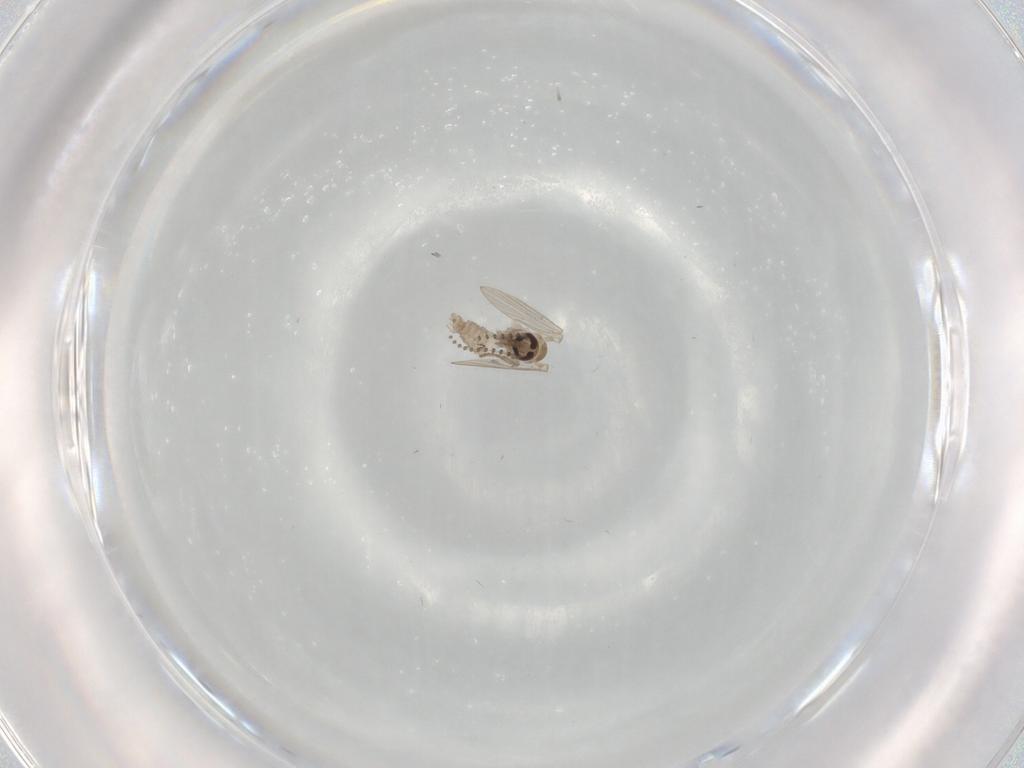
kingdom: Animalia
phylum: Arthropoda
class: Insecta
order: Diptera
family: Psychodidae
